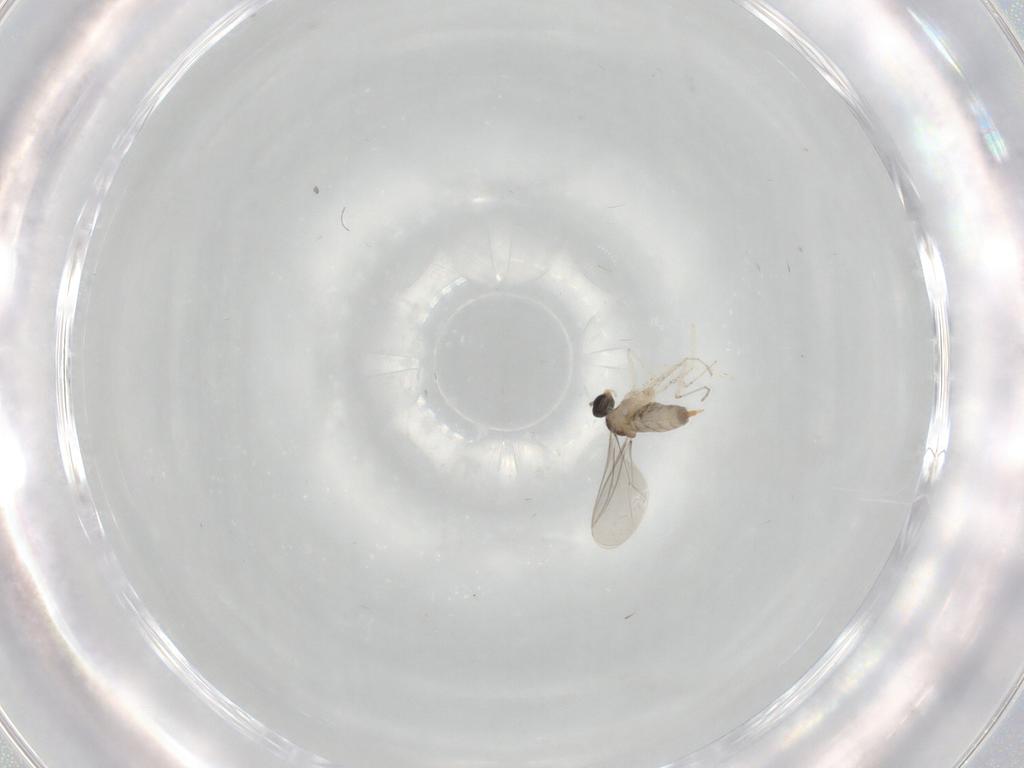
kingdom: Animalia
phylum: Arthropoda
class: Insecta
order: Diptera
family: Cecidomyiidae
